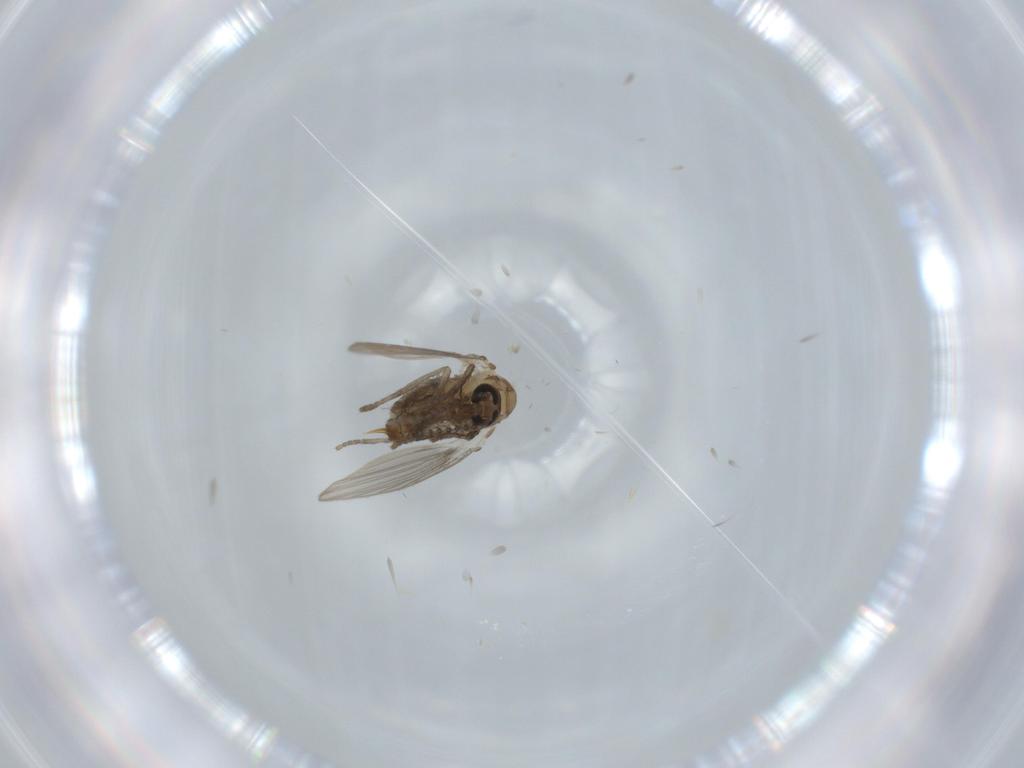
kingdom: Animalia
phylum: Arthropoda
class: Insecta
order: Diptera
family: Psychodidae
